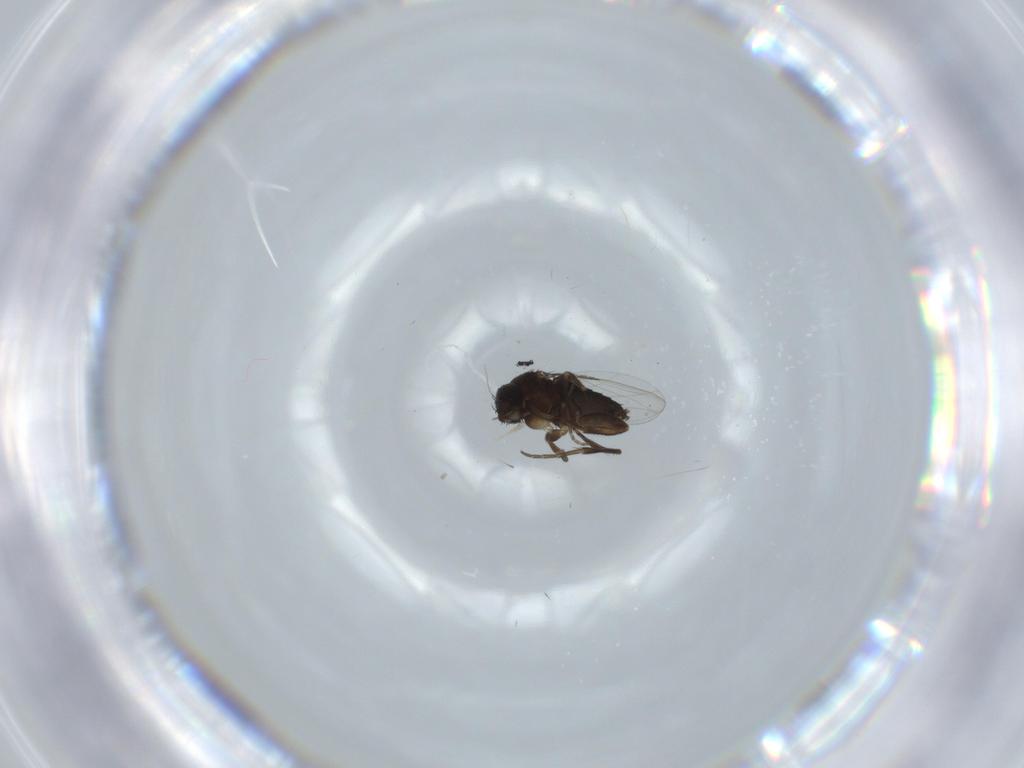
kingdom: Animalia
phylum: Arthropoda
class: Insecta
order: Diptera
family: Phoridae
